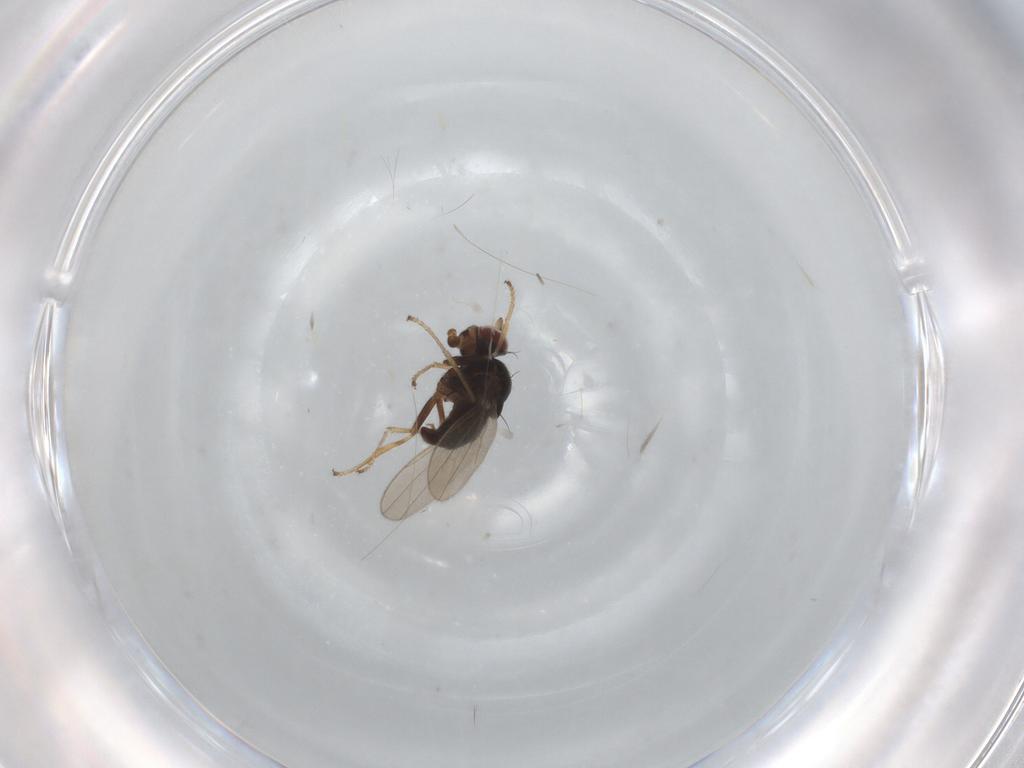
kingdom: Animalia
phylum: Arthropoda
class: Insecta
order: Diptera
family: Ephydridae
